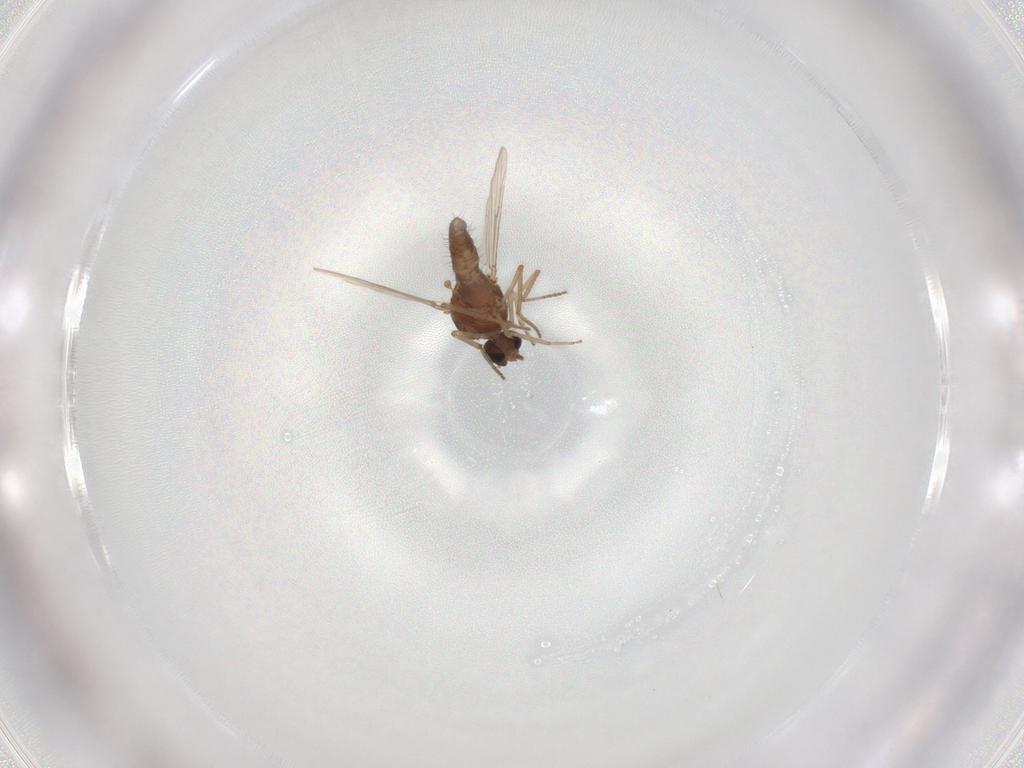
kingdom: Animalia
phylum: Arthropoda
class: Insecta
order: Diptera
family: Ceratopogonidae
